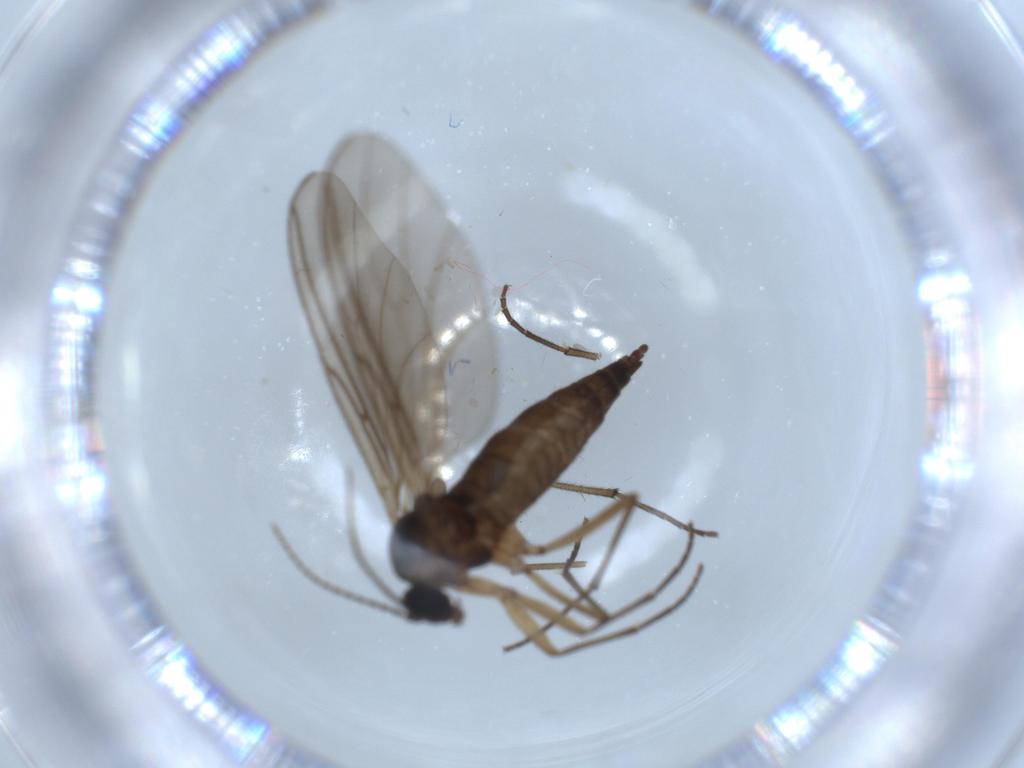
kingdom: Animalia
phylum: Arthropoda
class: Insecta
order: Diptera
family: Sciaridae
